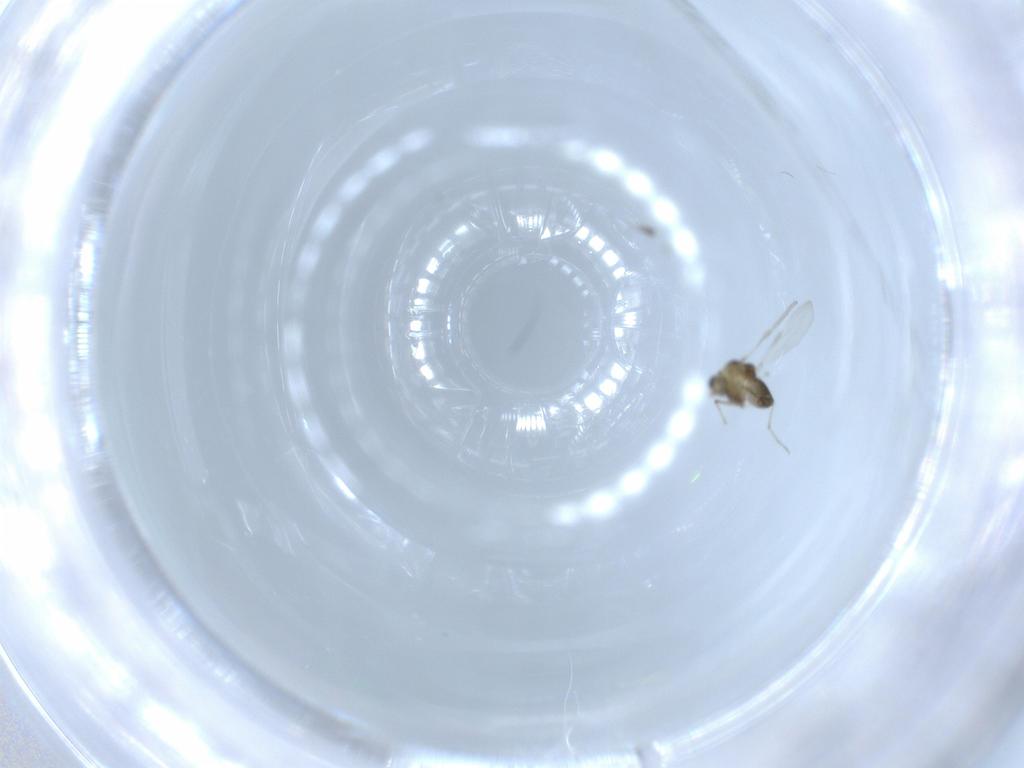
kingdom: Animalia
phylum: Arthropoda
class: Insecta
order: Diptera
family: Chironomidae
